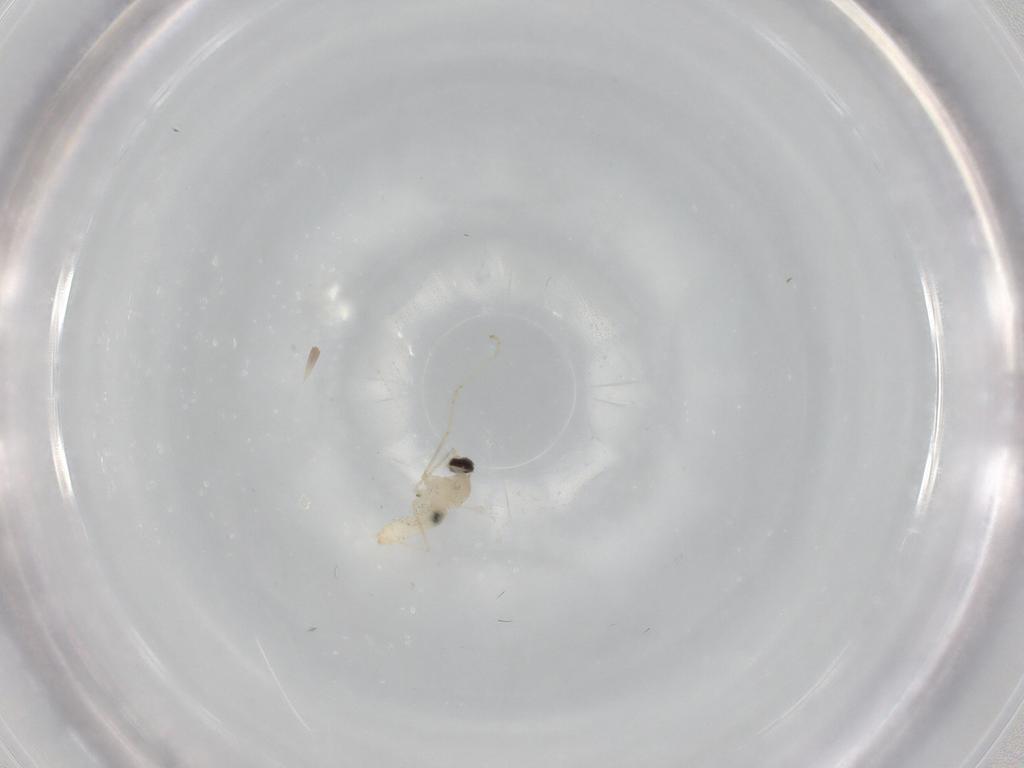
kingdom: Animalia
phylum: Arthropoda
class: Insecta
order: Diptera
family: Cecidomyiidae
